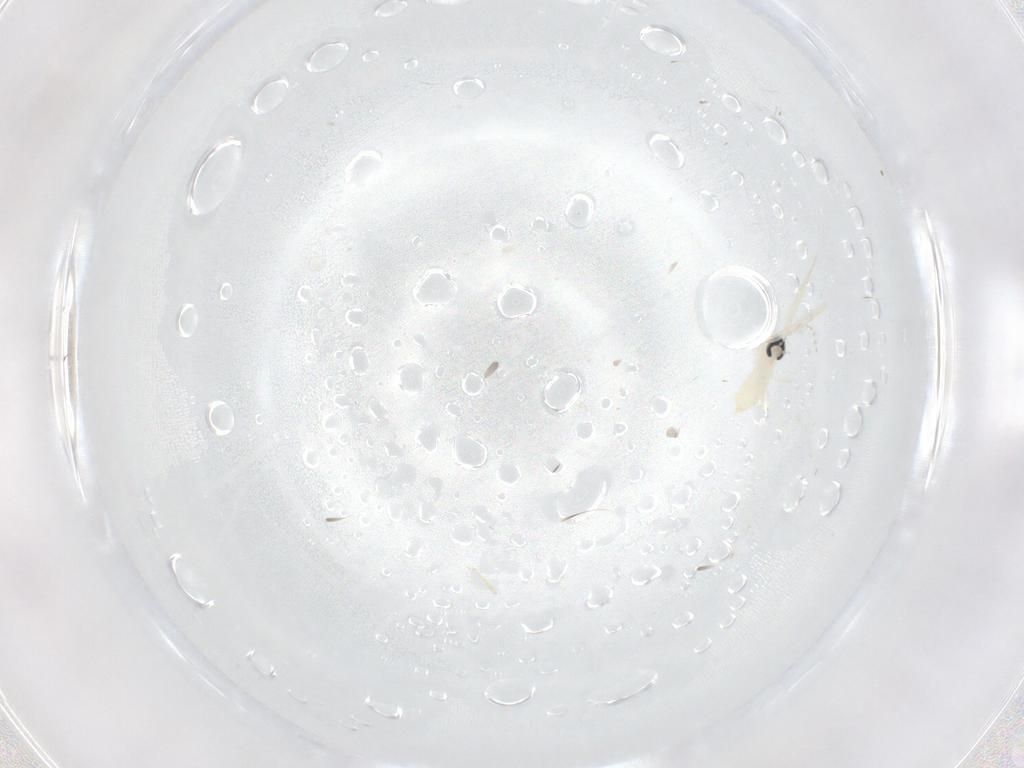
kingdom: Animalia
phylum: Arthropoda
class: Insecta
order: Diptera
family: Cecidomyiidae
